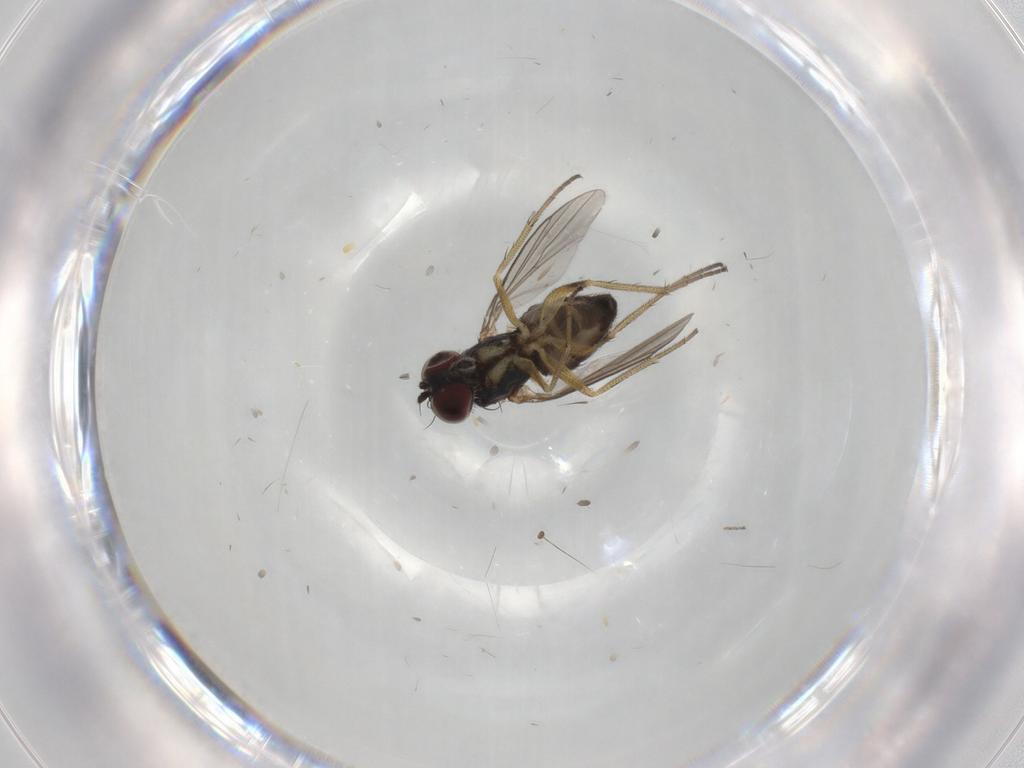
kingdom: Animalia
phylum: Arthropoda
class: Insecta
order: Diptera
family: Dolichopodidae
